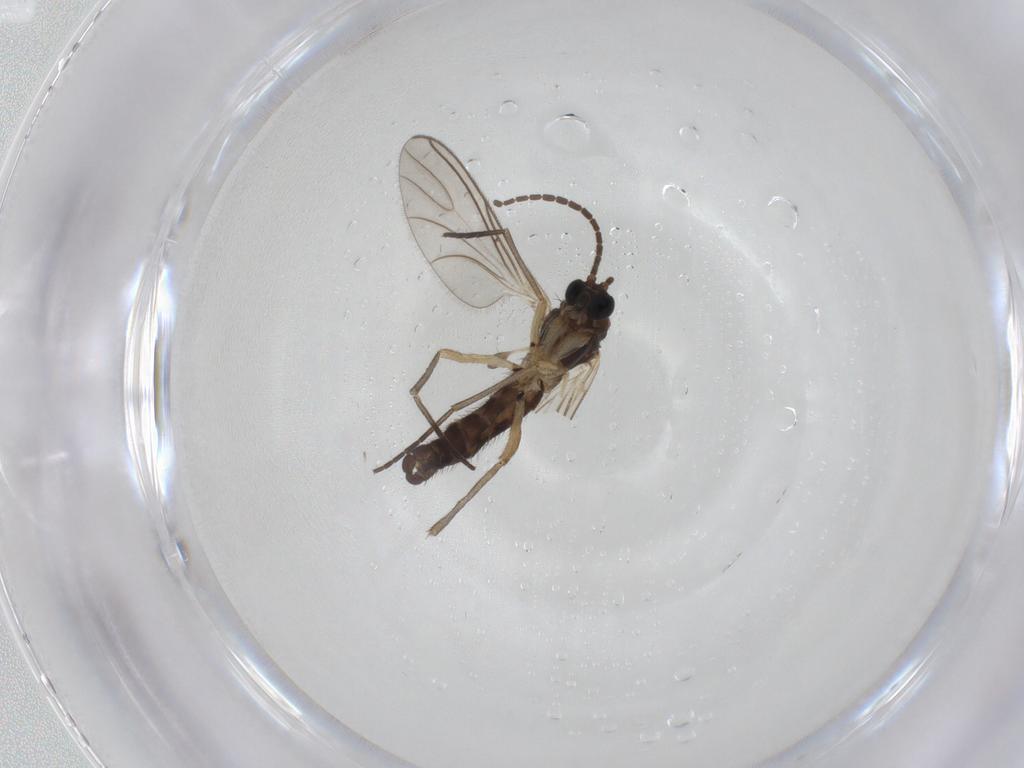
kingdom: Animalia
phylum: Arthropoda
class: Insecta
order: Diptera
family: Sciaridae
